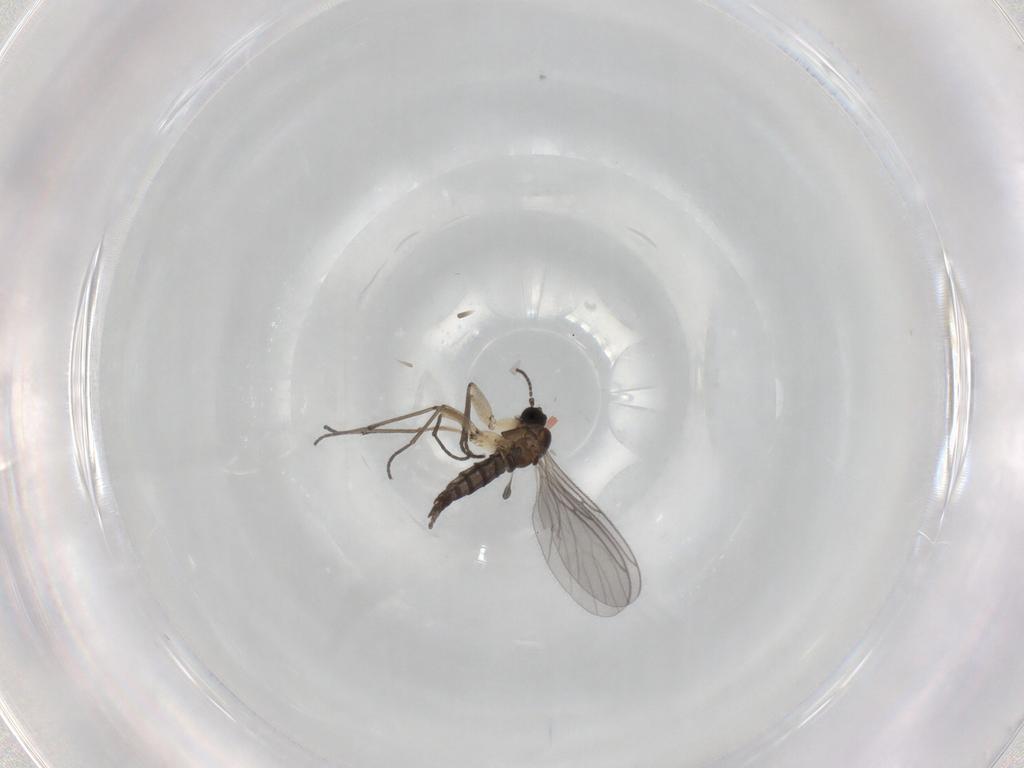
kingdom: Animalia
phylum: Arthropoda
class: Insecta
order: Diptera
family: Sciaridae
